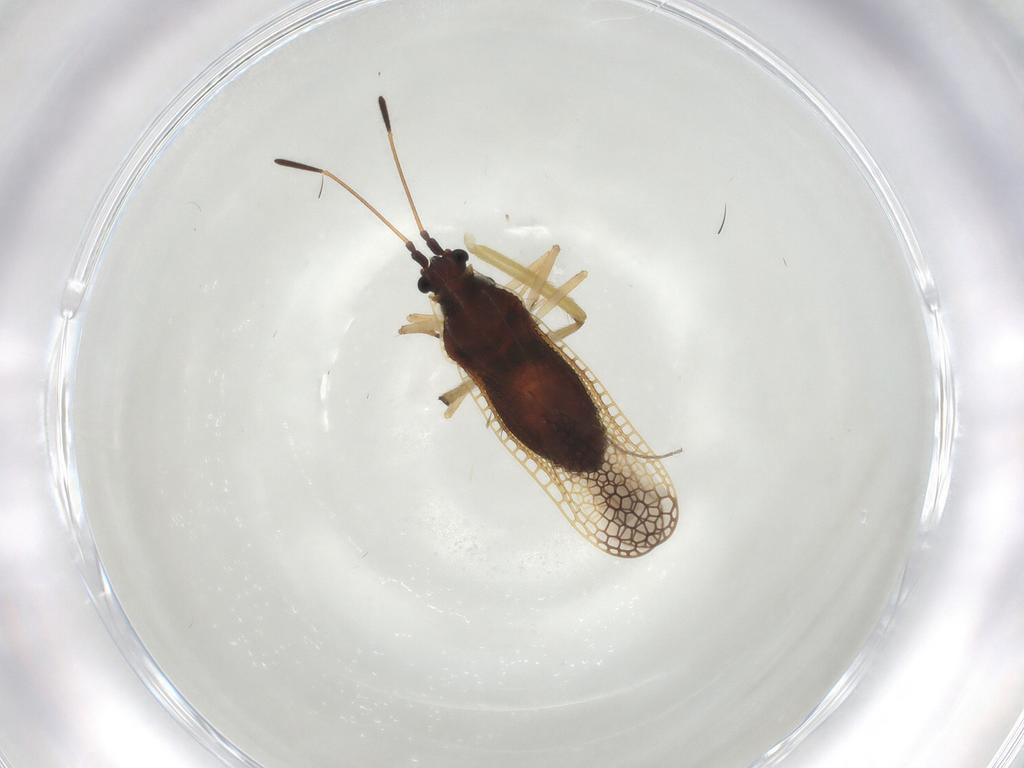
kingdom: Animalia
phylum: Arthropoda
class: Insecta
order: Hemiptera
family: Tingidae
